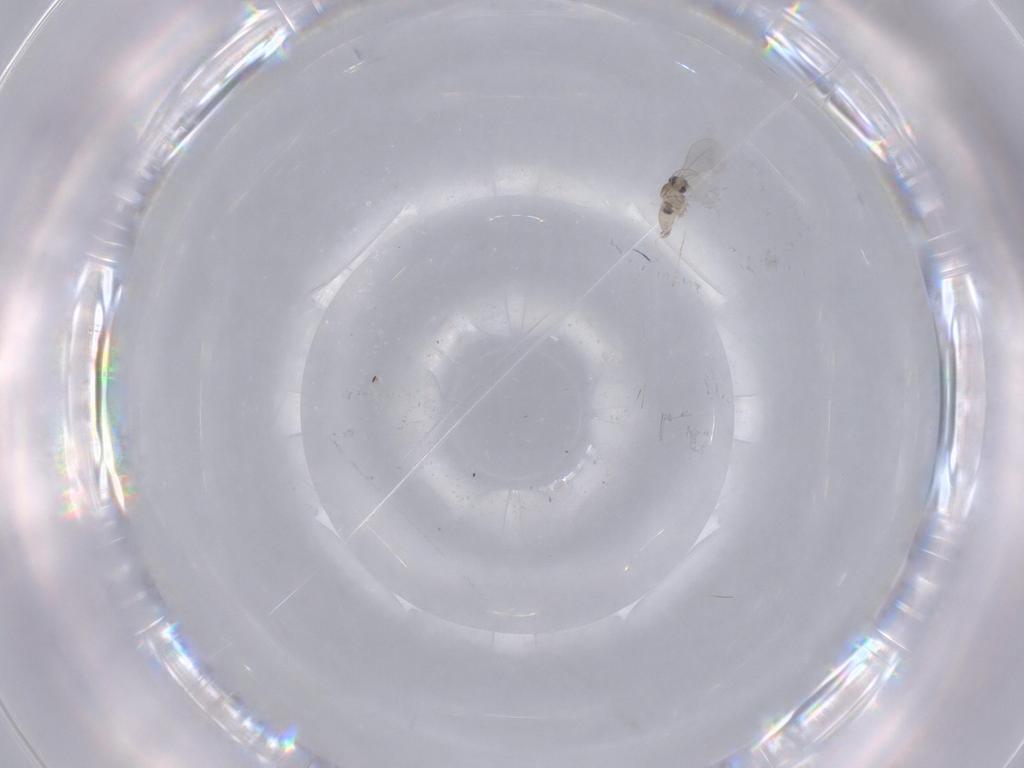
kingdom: Animalia
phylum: Arthropoda
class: Insecta
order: Diptera
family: Cecidomyiidae
